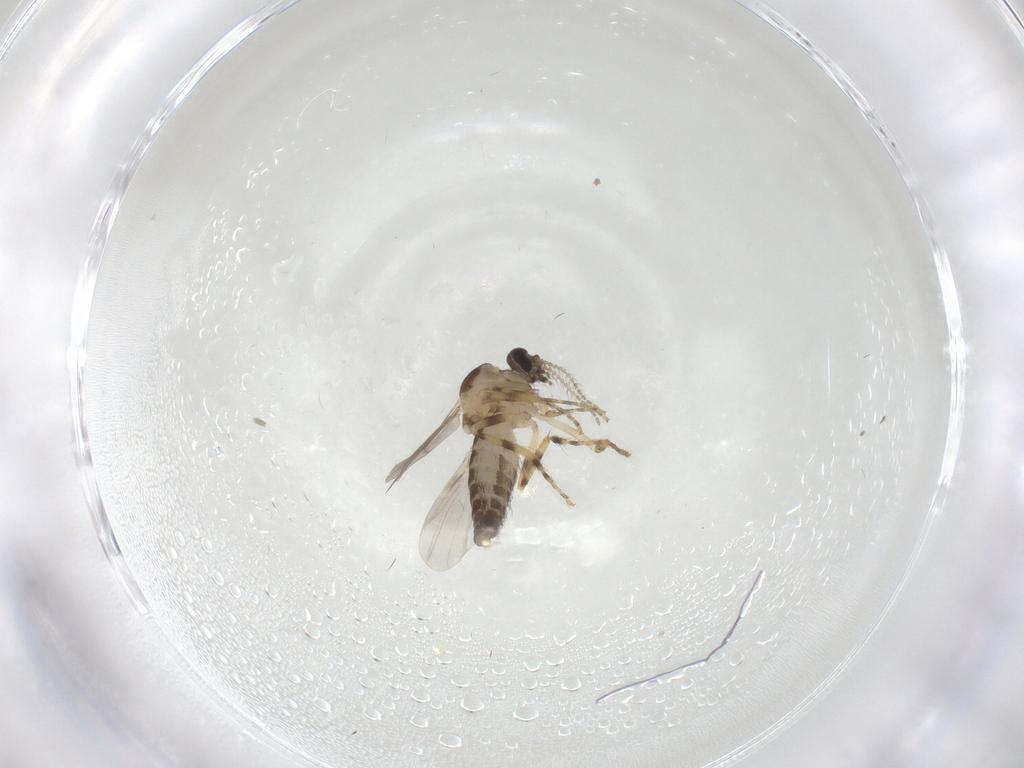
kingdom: Animalia
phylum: Arthropoda
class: Insecta
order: Diptera
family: Ceratopogonidae
